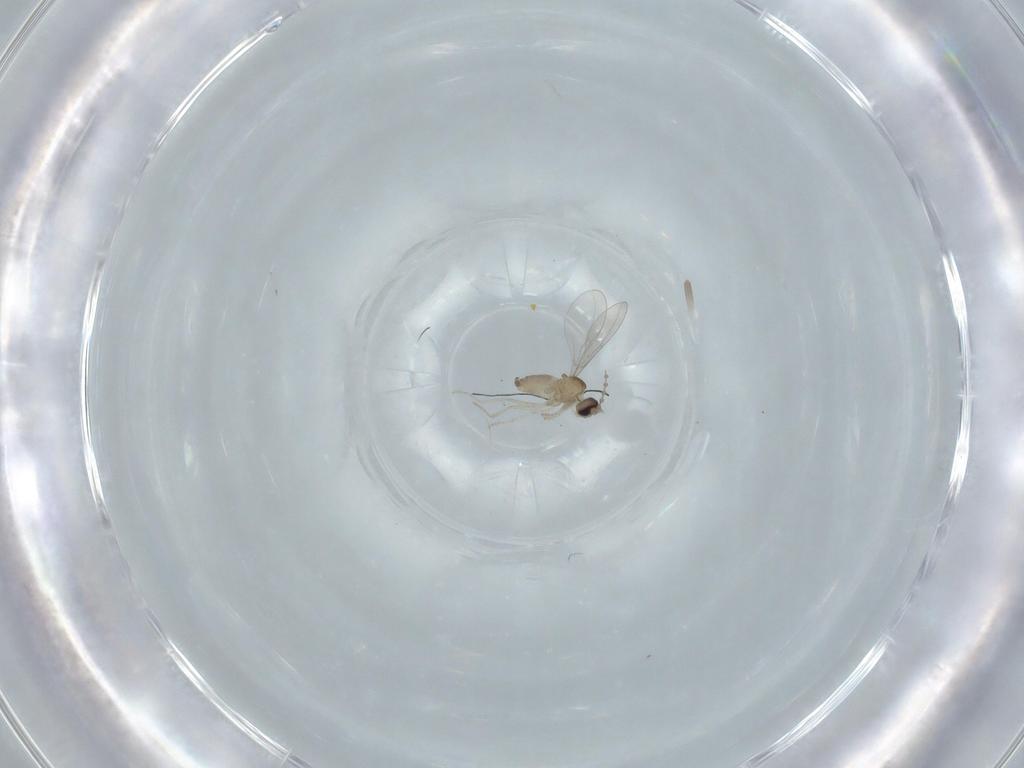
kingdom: Animalia
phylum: Arthropoda
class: Insecta
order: Diptera
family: Cecidomyiidae
